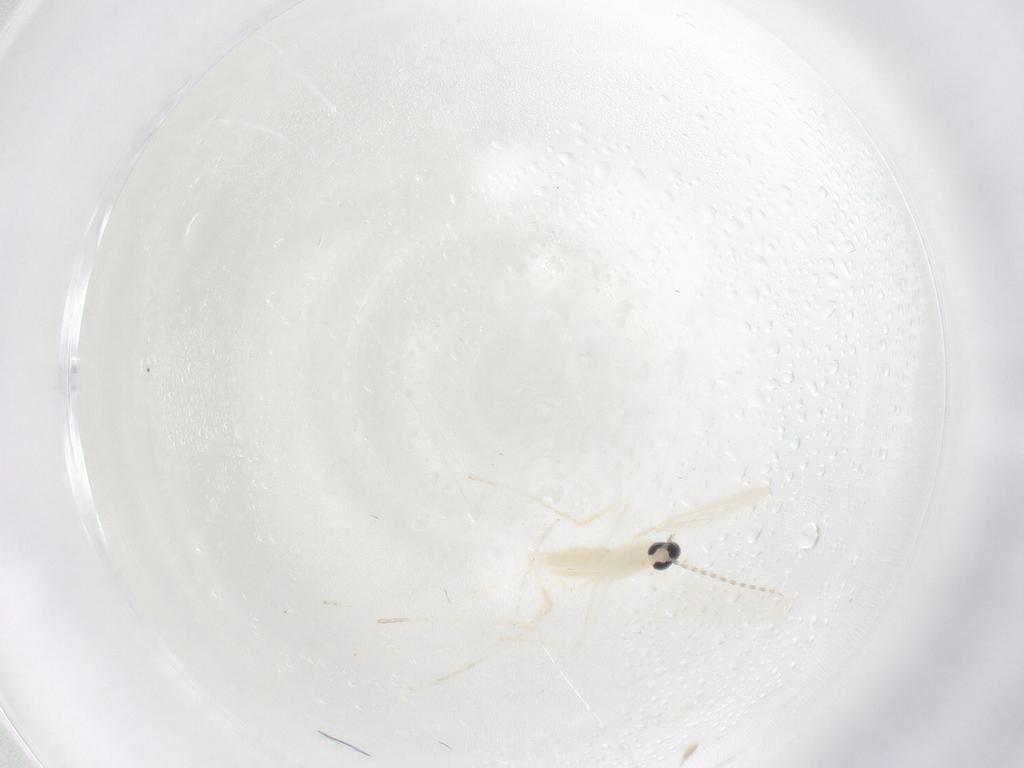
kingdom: Animalia
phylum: Arthropoda
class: Insecta
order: Diptera
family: Cecidomyiidae
